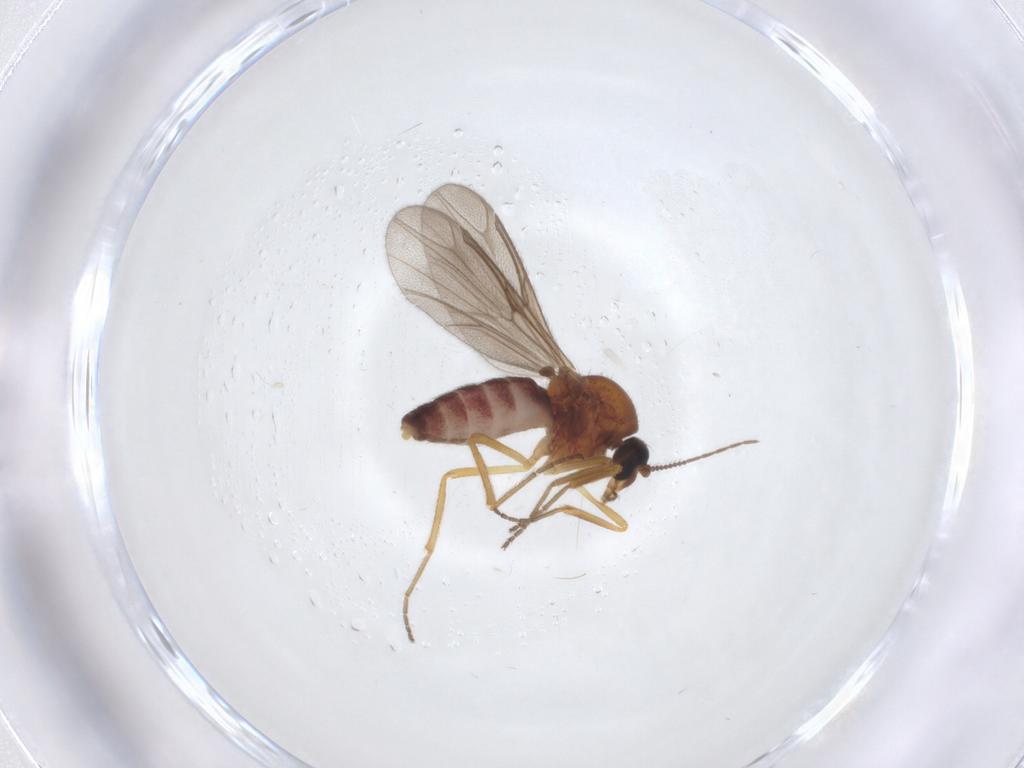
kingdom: Animalia
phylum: Arthropoda
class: Insecta
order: Diptera
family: Ceratopogonidae
